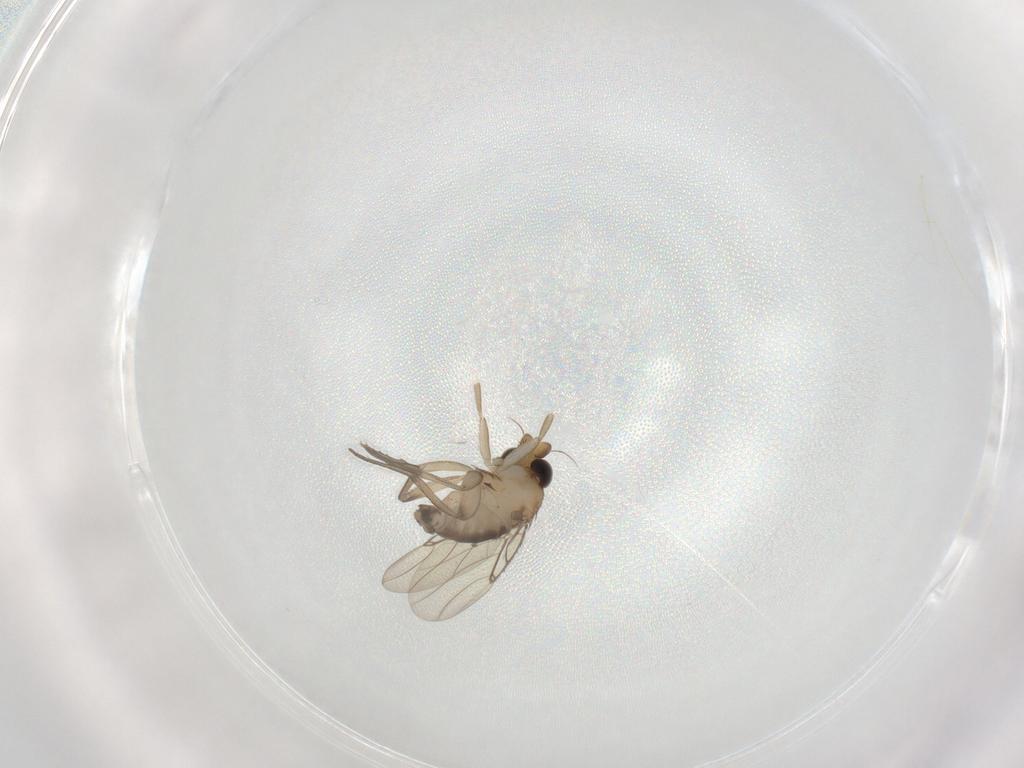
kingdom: Animalia
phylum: Arthropoda
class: Insecta
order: Diptera
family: Phoridae
